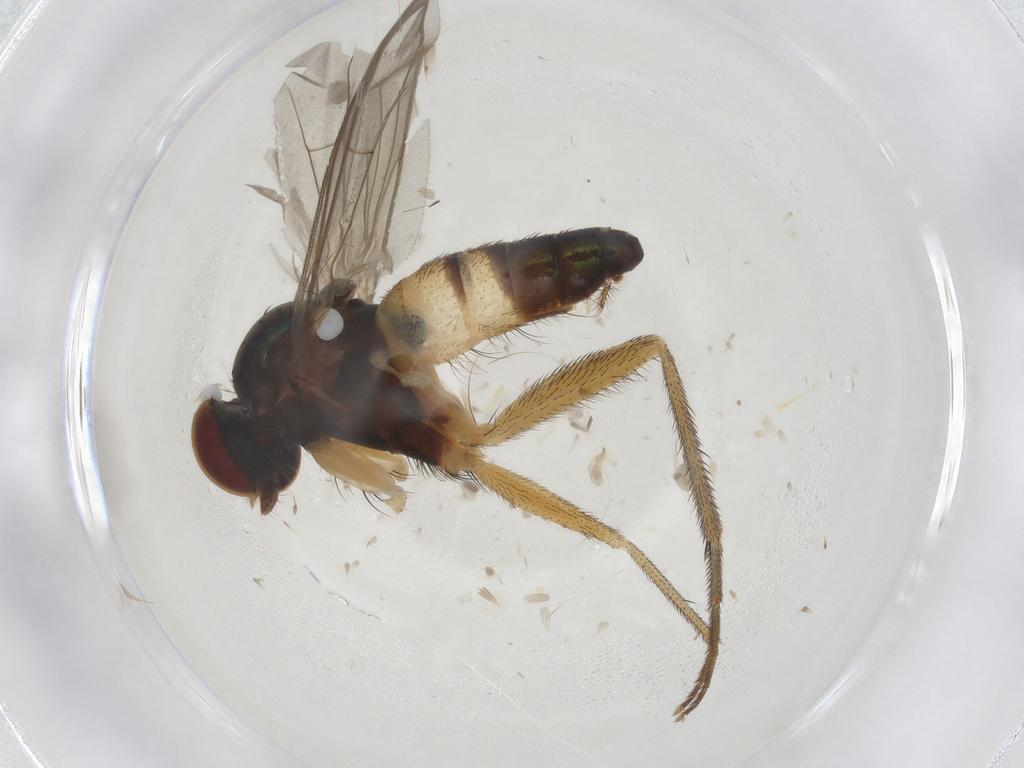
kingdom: Animalia
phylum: Arthropoda
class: Insecta
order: Diptera
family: Dolichopodidae
